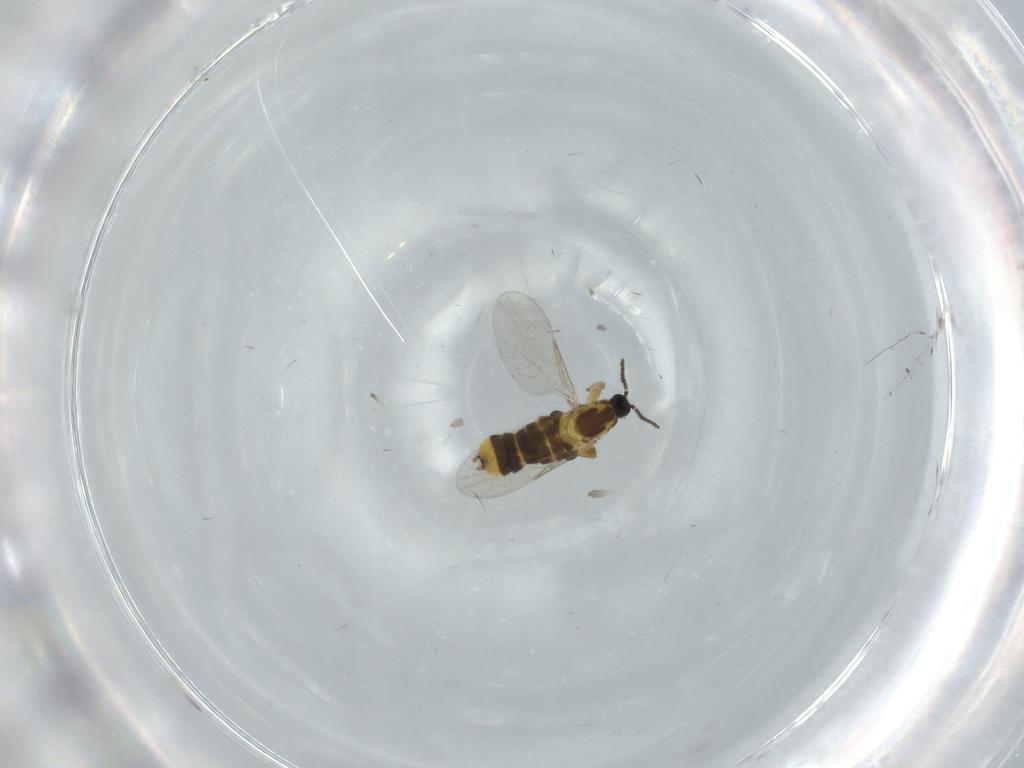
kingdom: Animalia
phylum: Arthropoda
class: Insecta
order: Diptera
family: Scatopsidae
